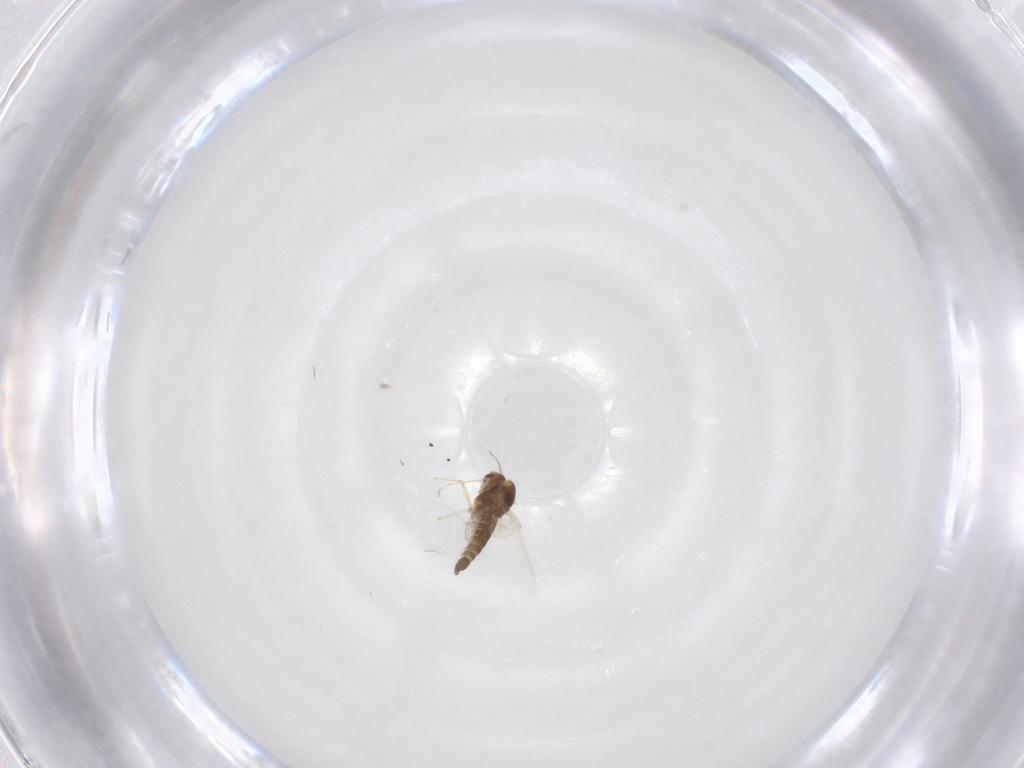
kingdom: Animalia
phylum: Arthropoda
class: Insecta
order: Diptera
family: Chironomidae
